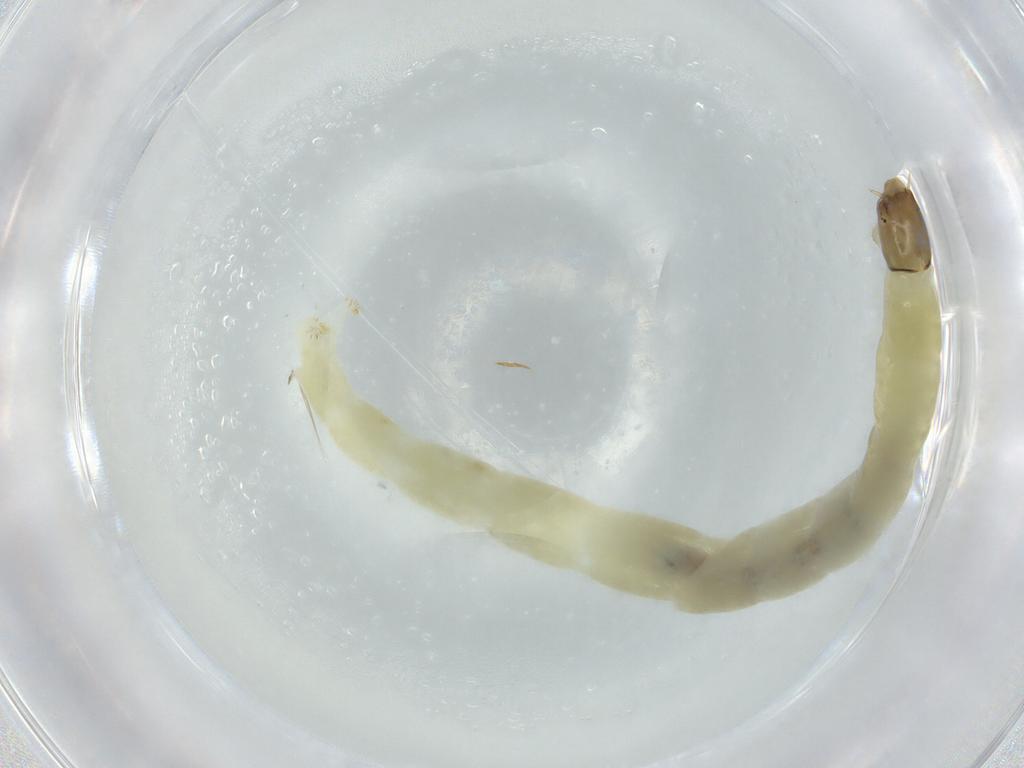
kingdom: Animalia
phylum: Arthropoda
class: Insecta
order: Diptera
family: Chironomidae
